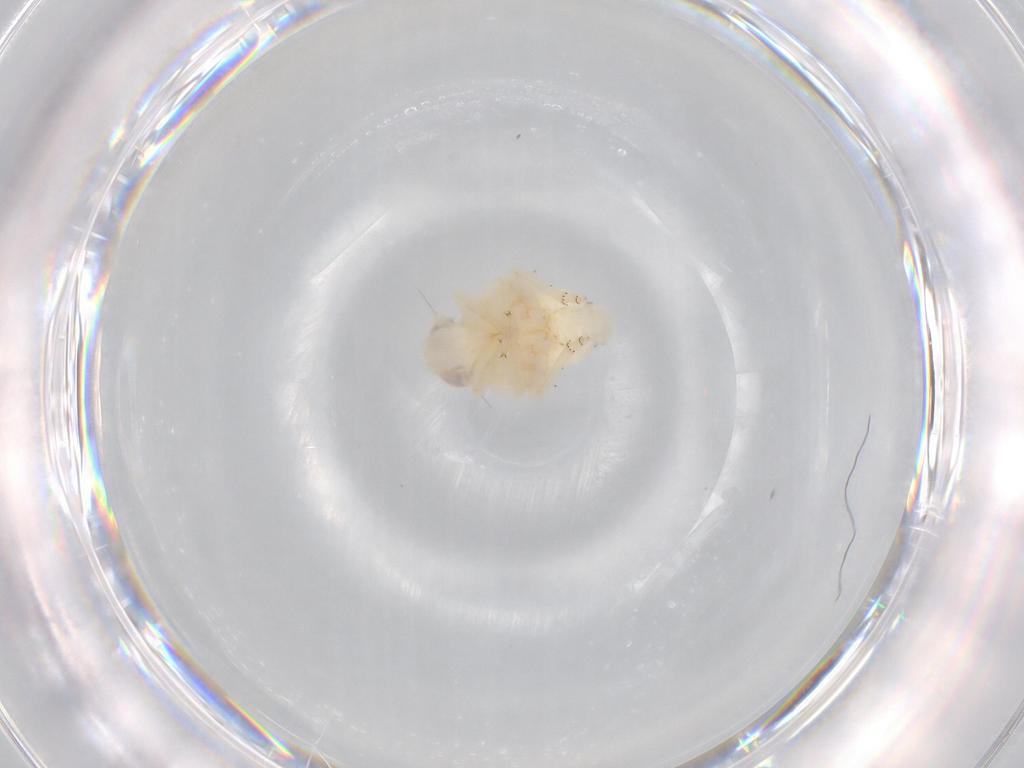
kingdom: Animalia
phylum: Arthropoda
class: Insecta
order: Hemiptera
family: Nogodinidae
